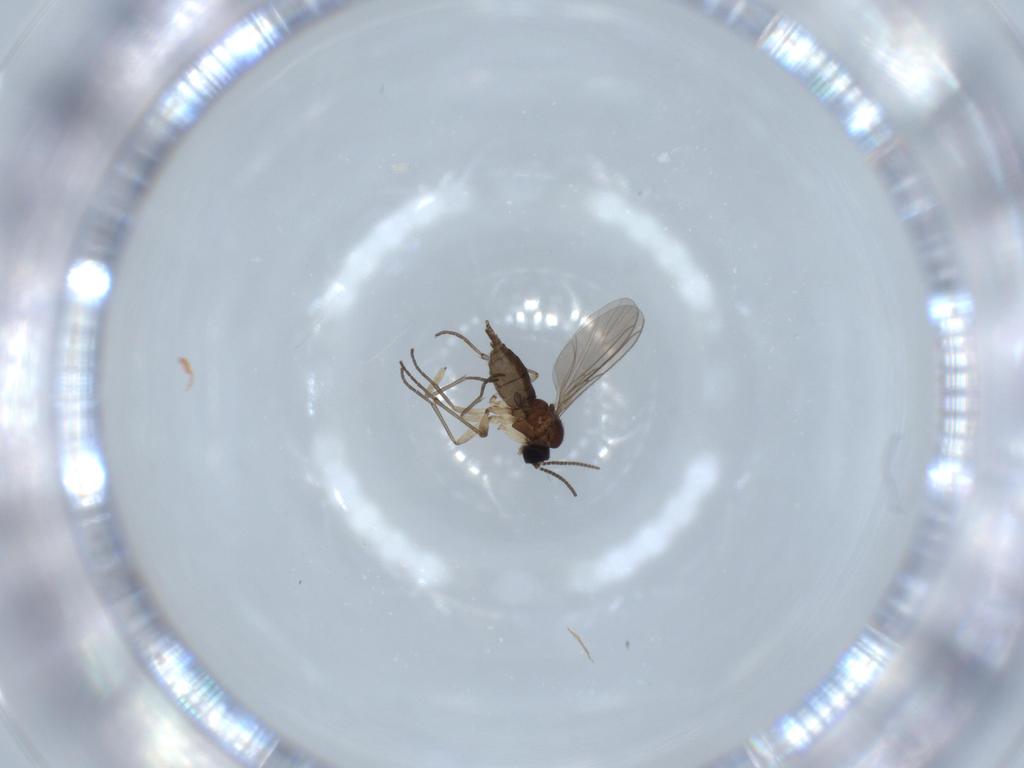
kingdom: Animalia
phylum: Arthropoda
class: Insecta
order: Diptera
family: Sciaridae
